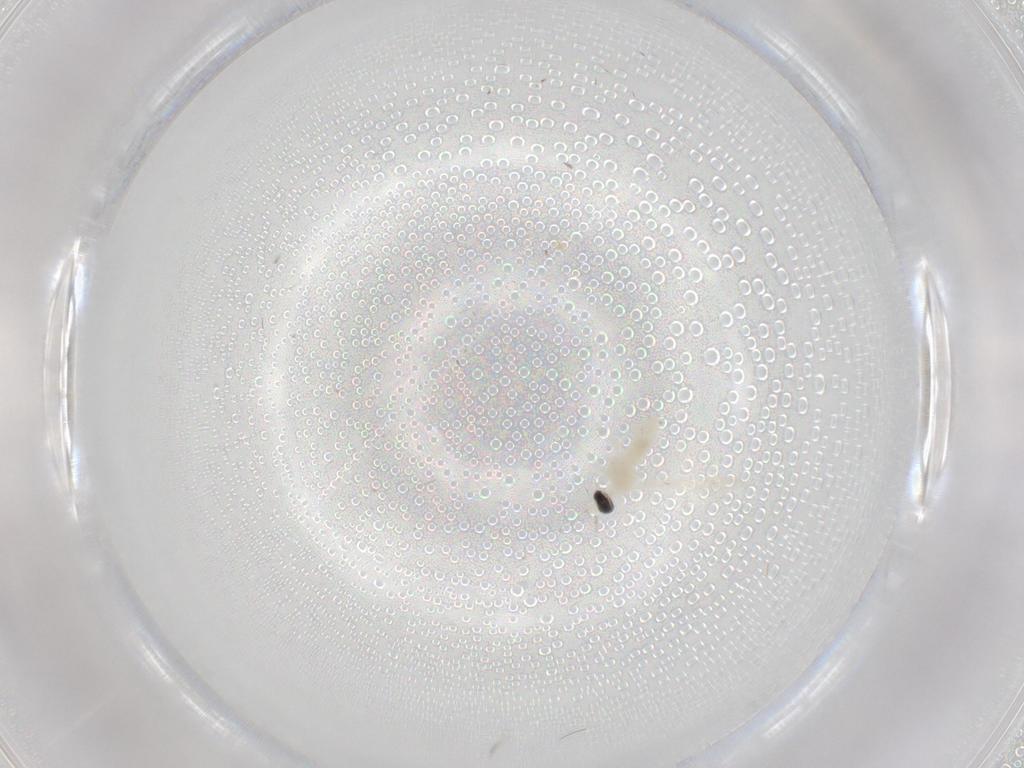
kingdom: Animalia
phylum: Arthropoda
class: Insecta
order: Diptera
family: Cecidomyiidae
